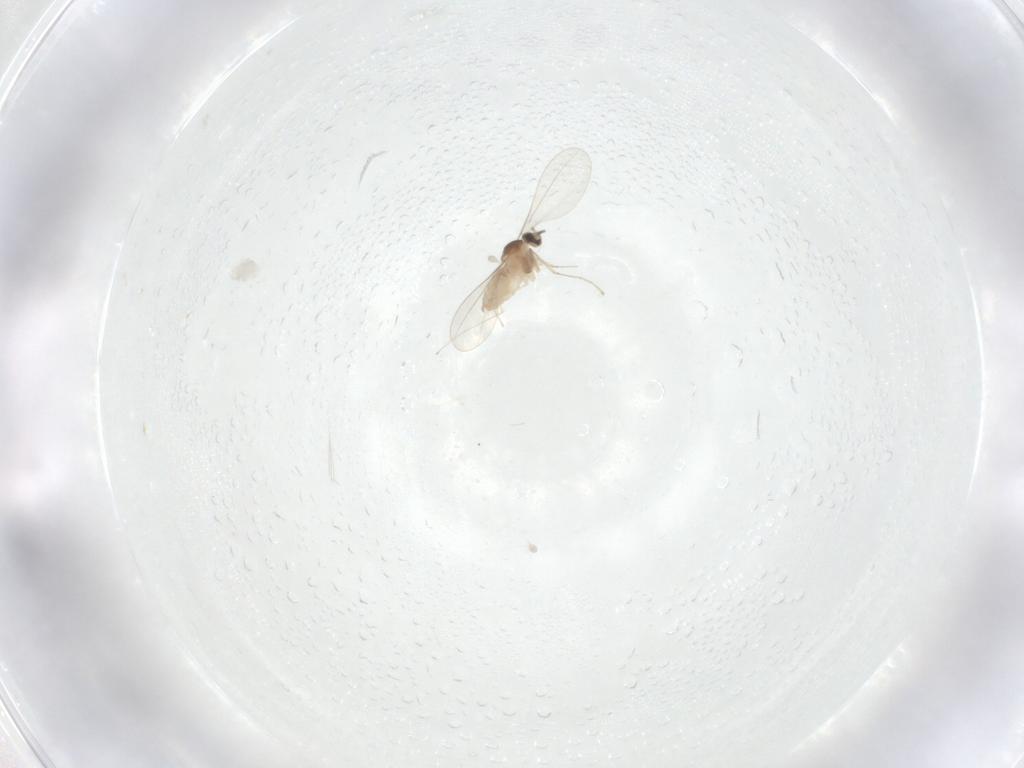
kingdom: Animalia
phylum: Arthropoda
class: Insecta
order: Diptera
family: Cecidomyiidae
